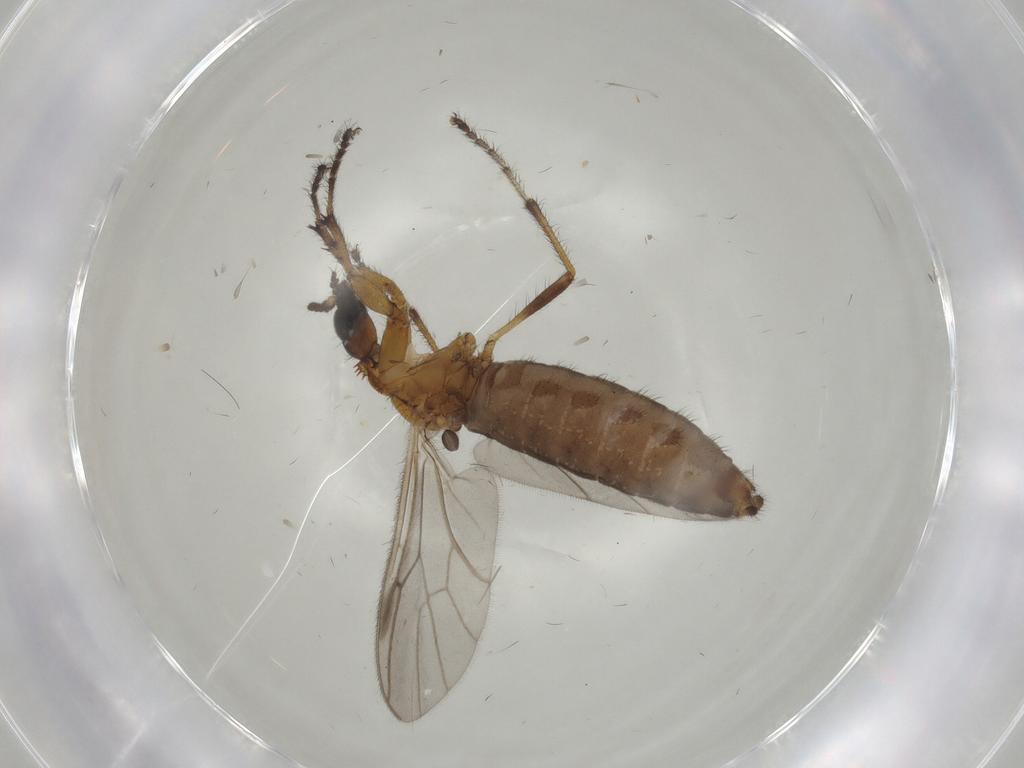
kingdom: Animalia
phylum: Arthropoda
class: Insecta
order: Diptera
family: Bibionidae
